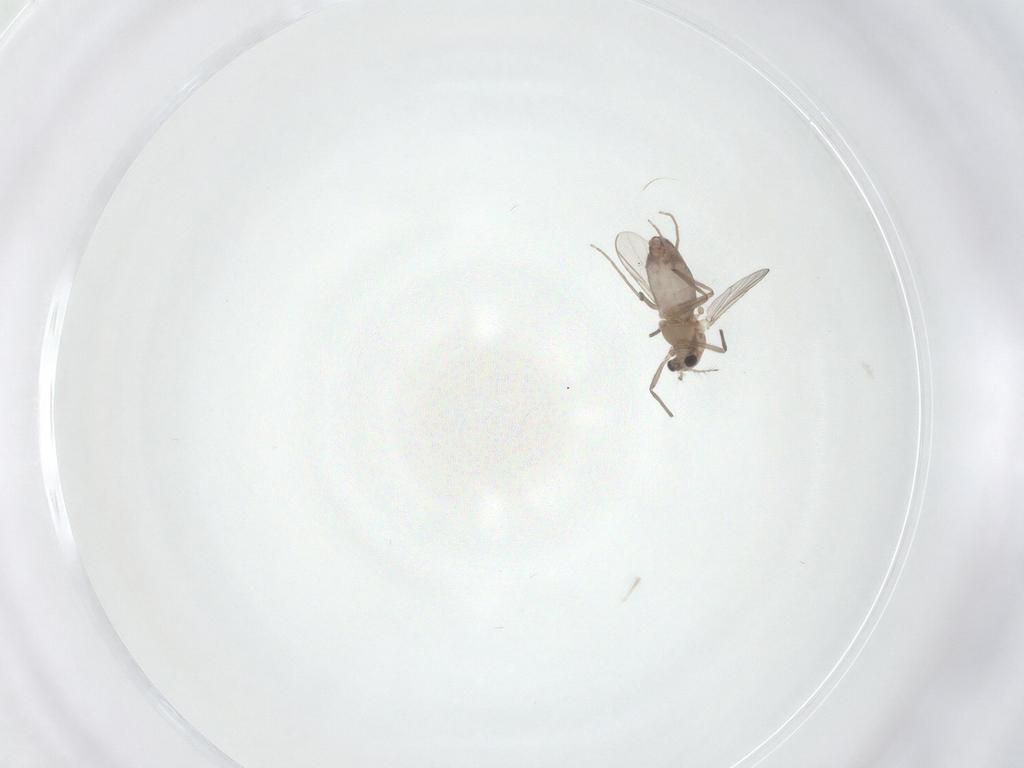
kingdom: Animalia
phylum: Arthropoda
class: Insecta
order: Diptera
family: Chironomidae
